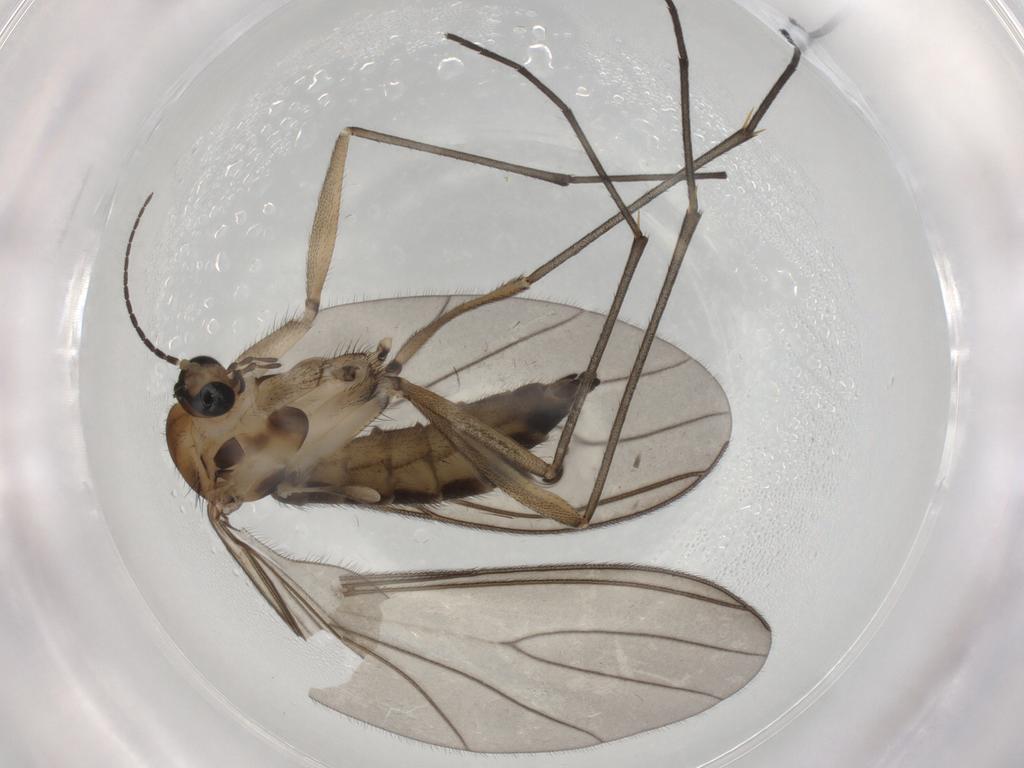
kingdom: Animalia
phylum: Arthropoda
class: Insecta
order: Diptera
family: Sciaridae
